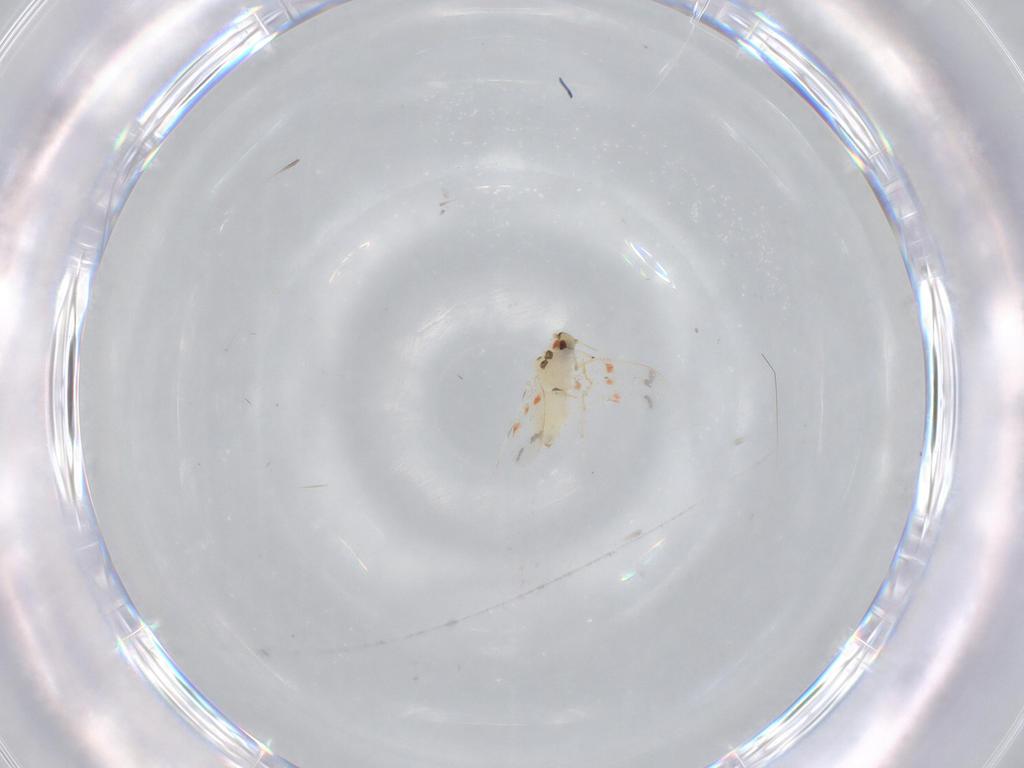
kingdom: Animalia
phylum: Arthropoda
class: Insecta
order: Hemiptera
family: Aleyrodidae
